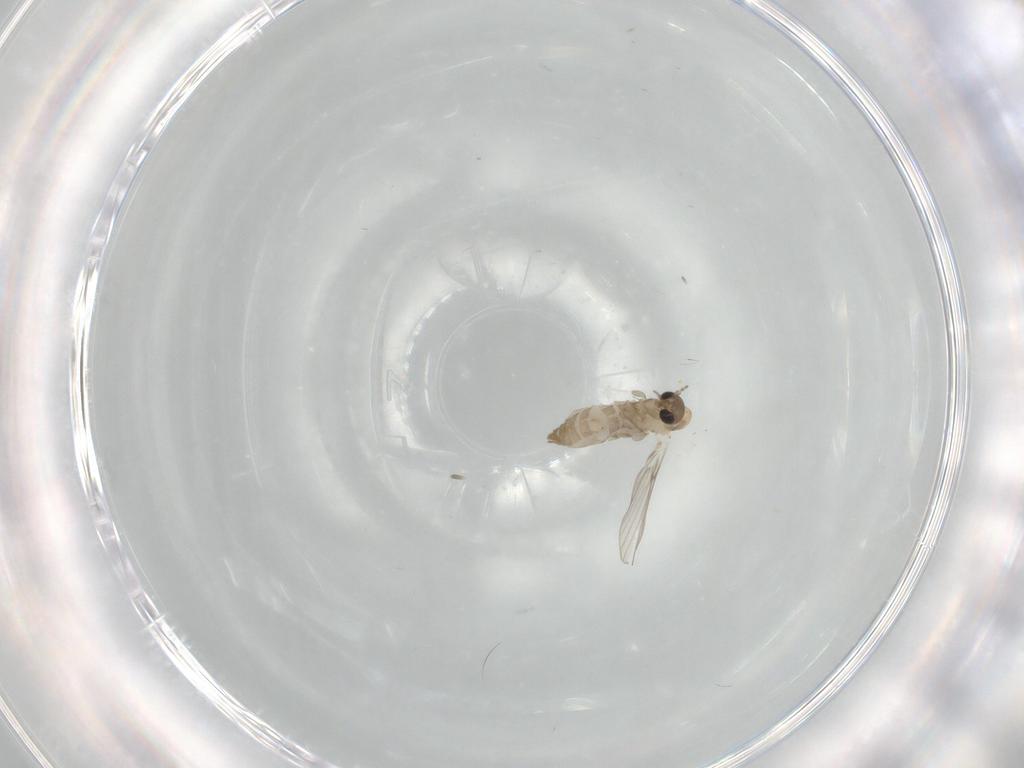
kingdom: Animalia
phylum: Arthropoda
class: Insecta
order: Diptera
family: Psychodidae
